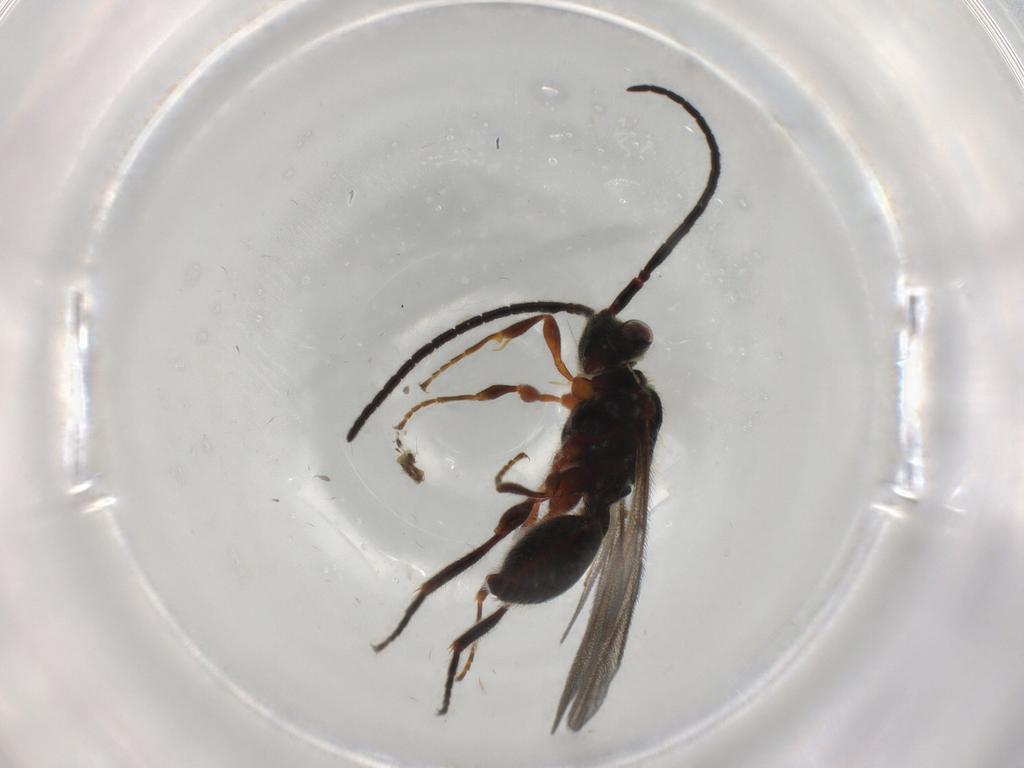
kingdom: Animalia
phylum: Arthropoda
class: Insecta
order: Hymenoptera
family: Diapriidae
